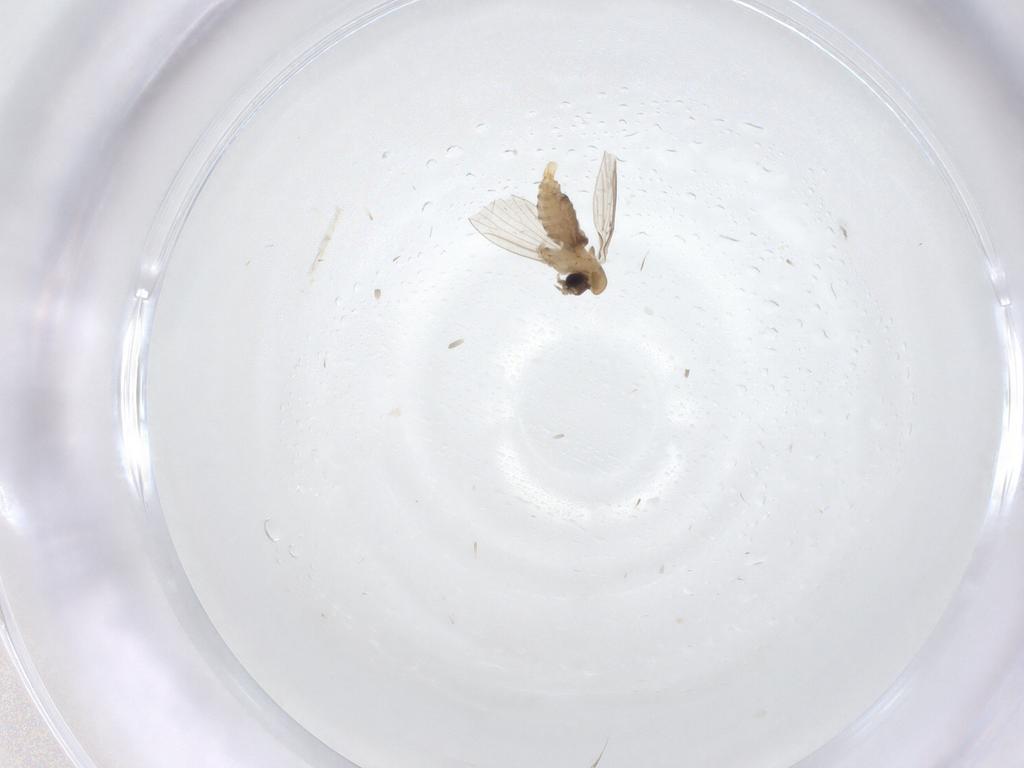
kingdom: Animalia
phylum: Arthropoda
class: Insecta
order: Diptera
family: Psychodidae
